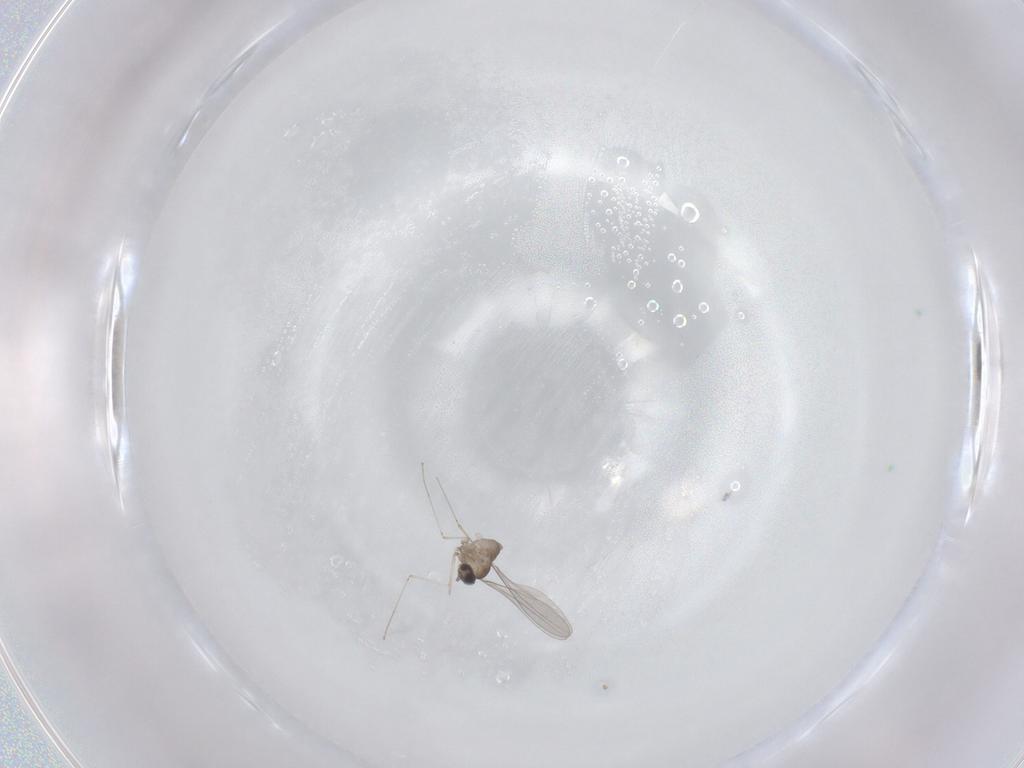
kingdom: Animalia
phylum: Arthropoda
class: Insecta
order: Diptera
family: Cecidomyiidae
